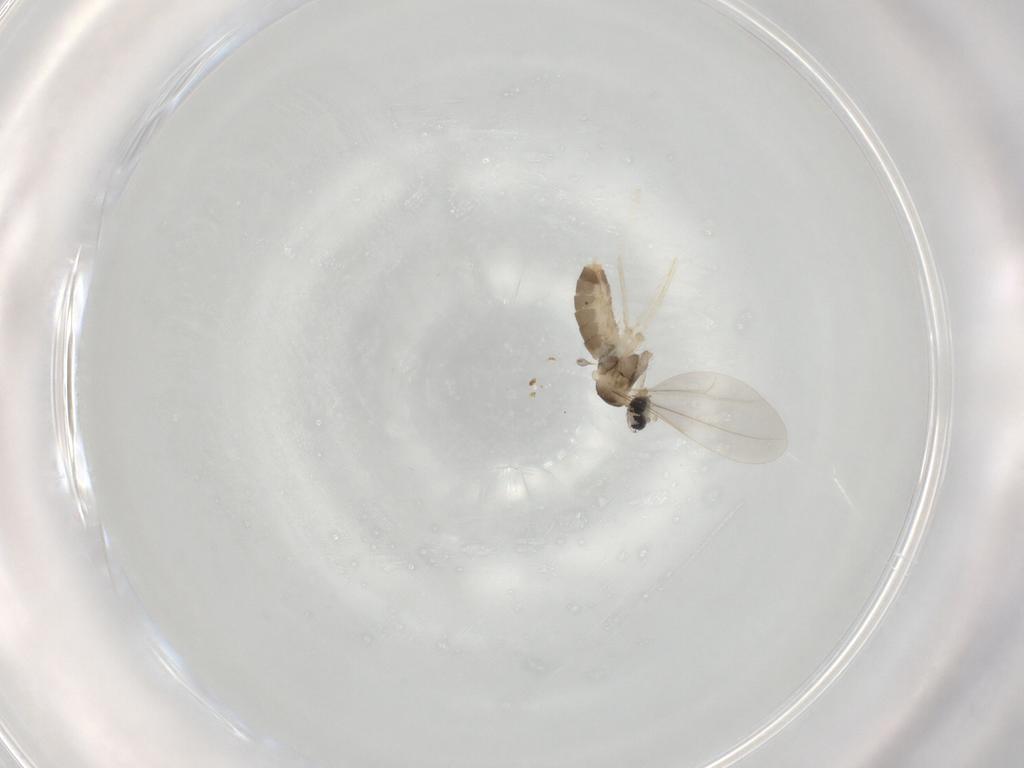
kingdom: Animalia
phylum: Arthropoda
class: Insecta
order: Diptera
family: Cecidomyiidae
